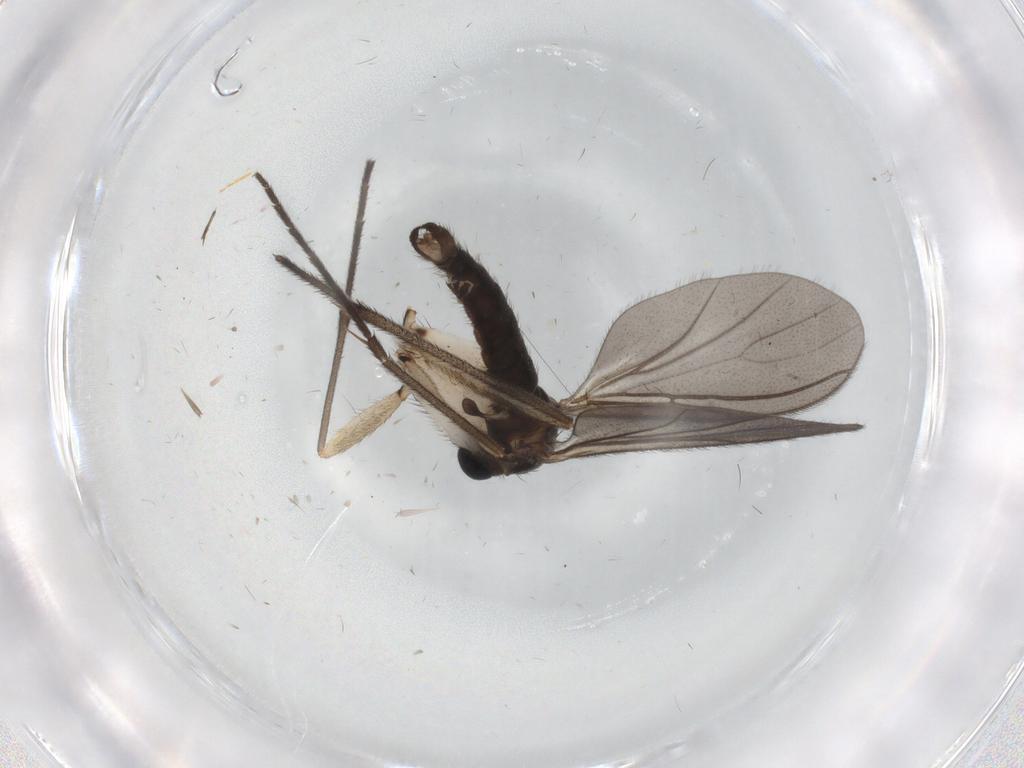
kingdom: Animalia
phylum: Arthropoda
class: Insecta
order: Diptera
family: Sciaridae
